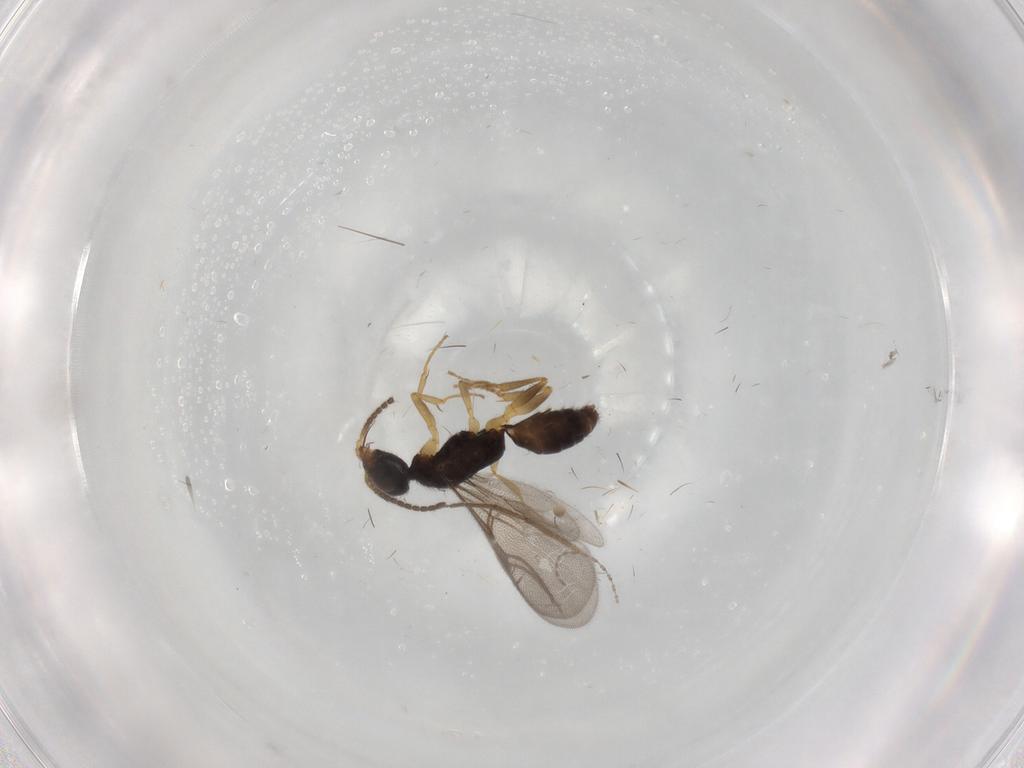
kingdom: Animalia
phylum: Arthropoda
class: Insecta
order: Hymenoptera
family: Bethylidae
